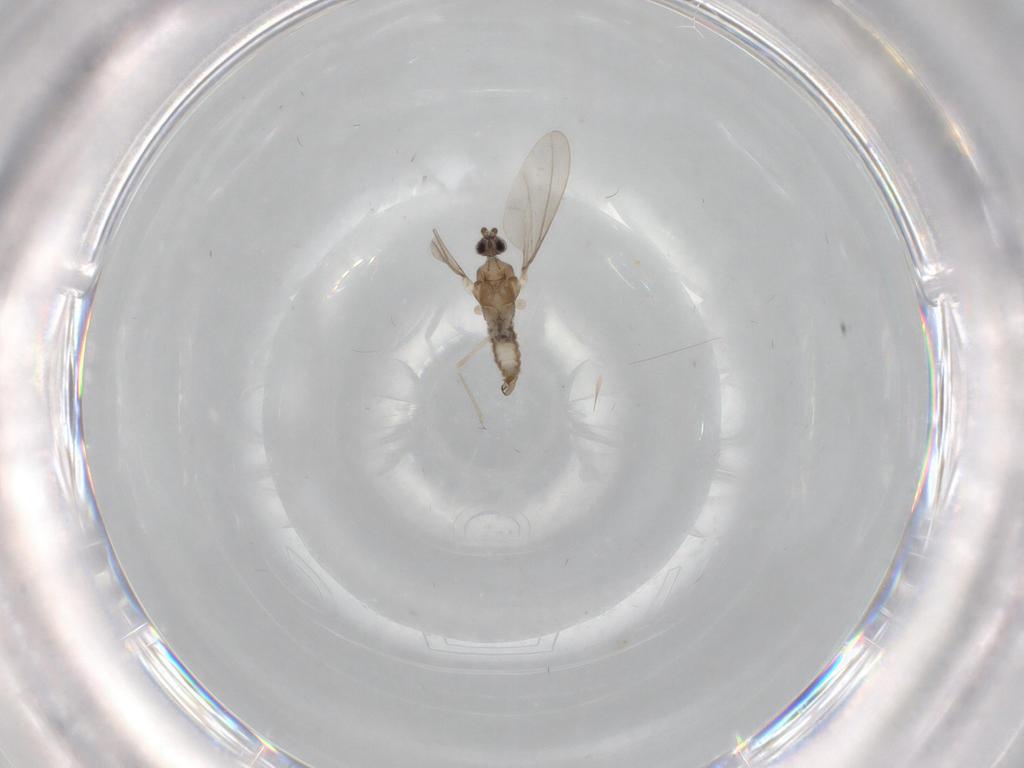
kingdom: Animalia
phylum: Arthropoda
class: Insecta
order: Diptera
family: Cecidomyiidae
